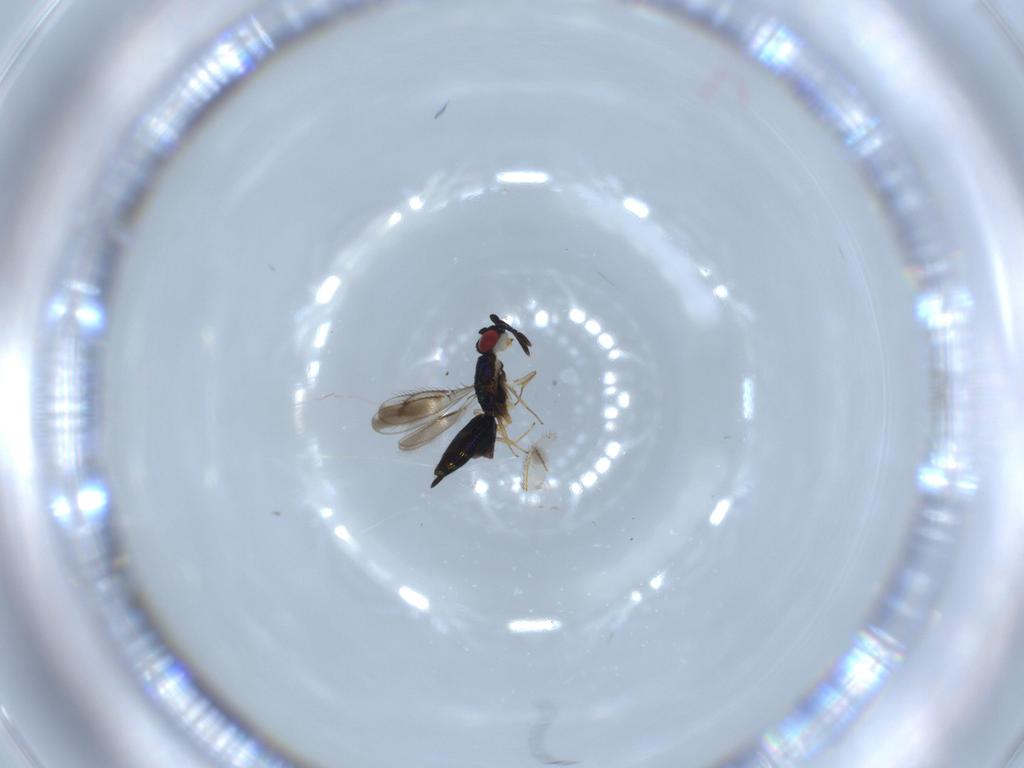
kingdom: Animalia
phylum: Arthropoda
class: Insecta
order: Hymenoptera
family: Pteromalidae
